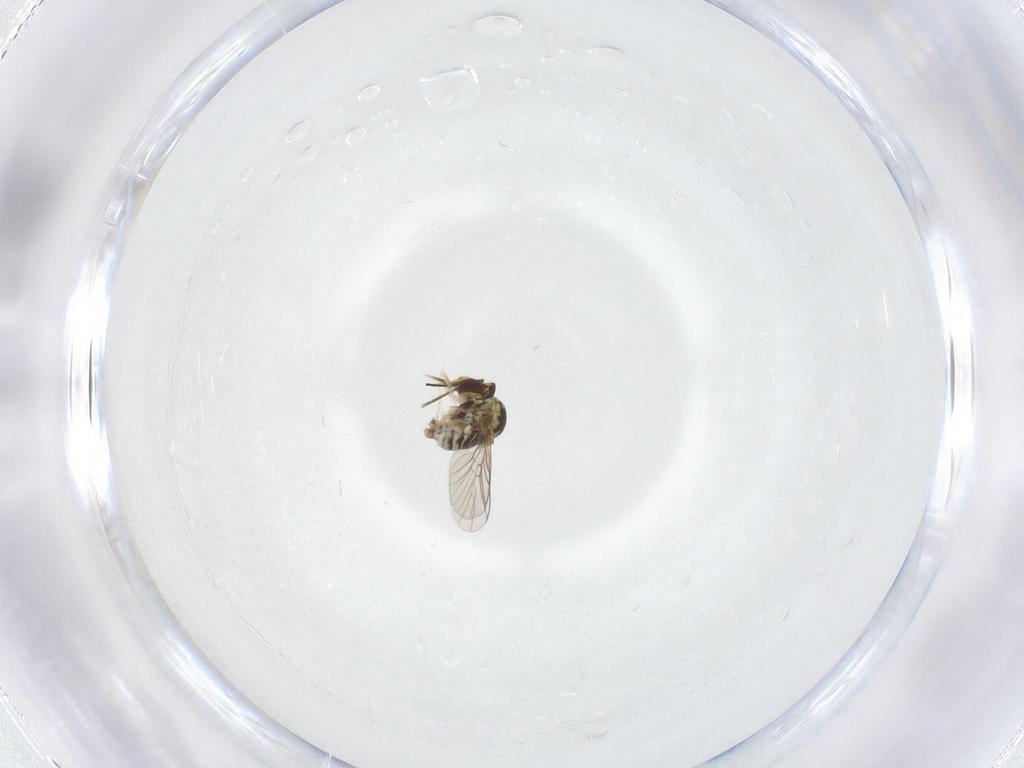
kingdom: Animalia
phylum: Arthropoda
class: Insecta
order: Diptera
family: Bombyliidae
